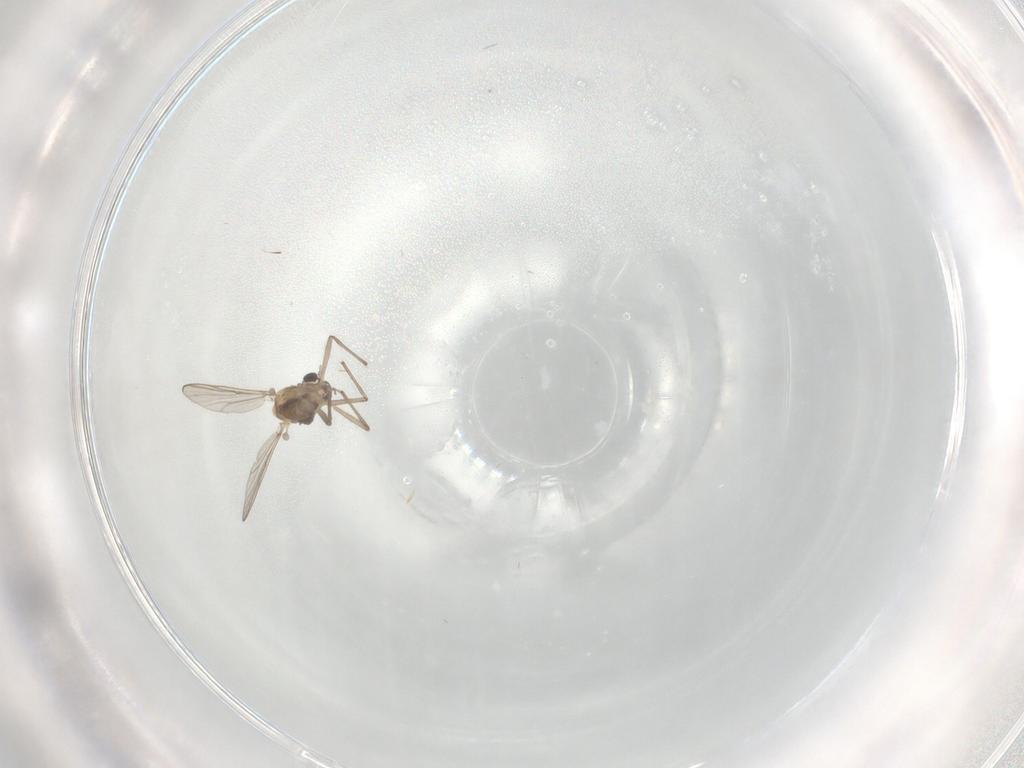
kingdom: Animalia
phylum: Arthropoda
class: Insecta
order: Diptera
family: Chironomidae
